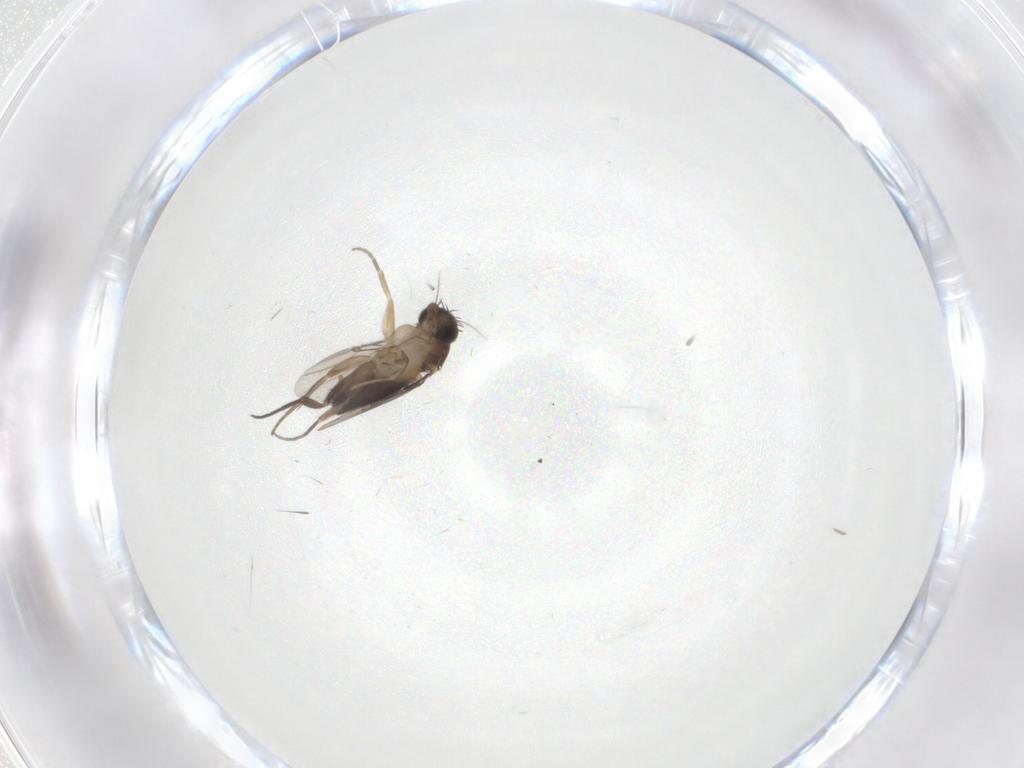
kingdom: Animalia
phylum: Arthropoda
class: Insecta
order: Diptera
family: Phoridae
